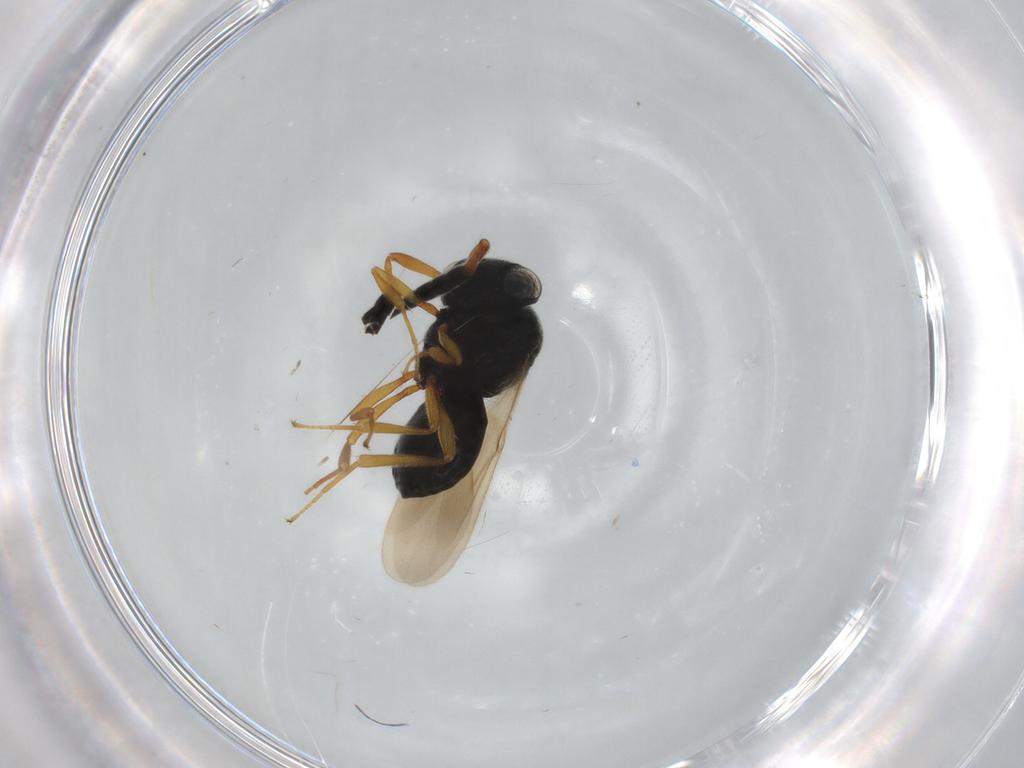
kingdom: Animalia
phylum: Arthropoda
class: Insecta
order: Hymenoptera
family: Scelionidae
